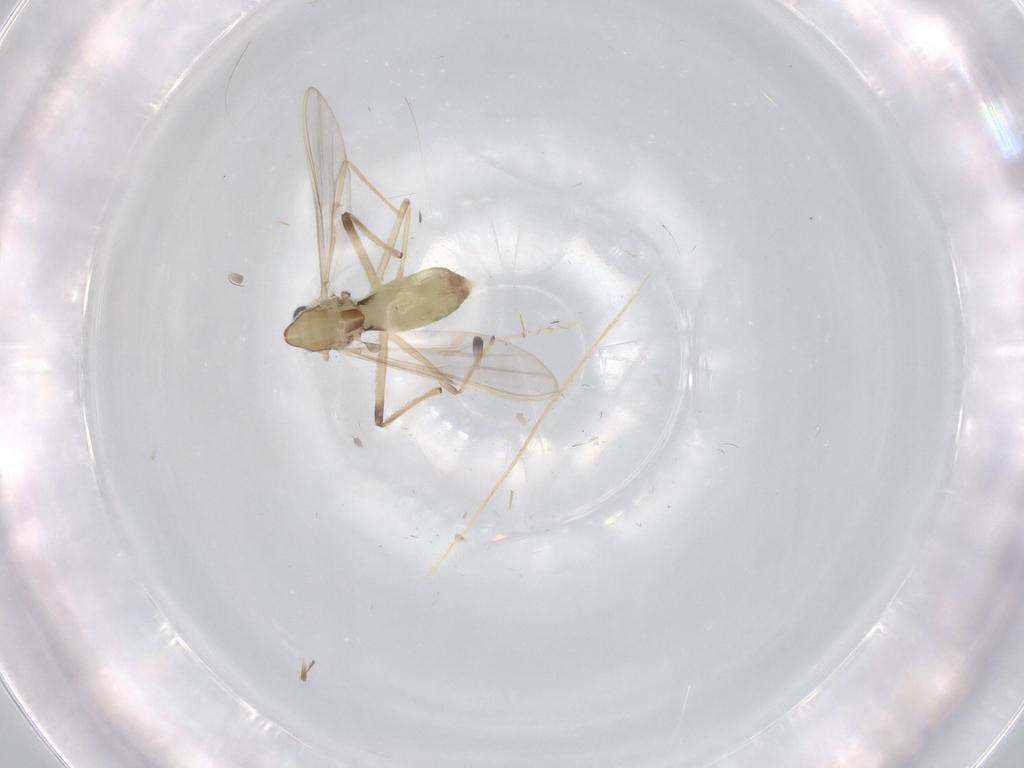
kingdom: Animalia
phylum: Arthropoda
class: Insecta
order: Diptera
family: Chironomidae
